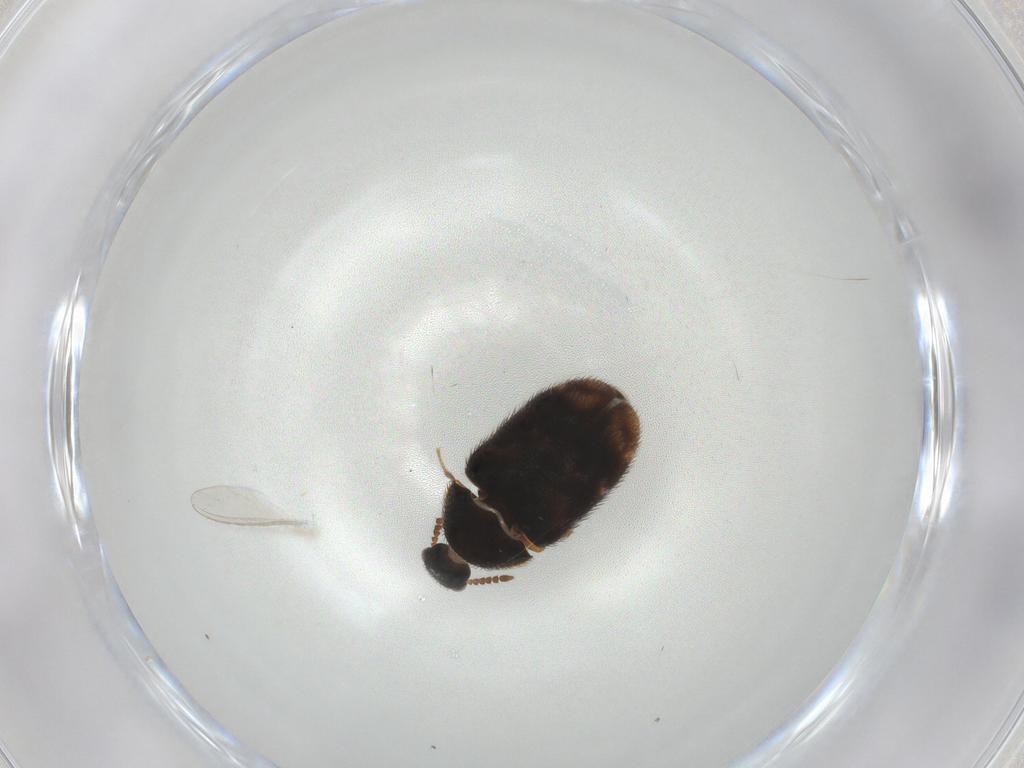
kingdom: Animalia
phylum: Arthropoda
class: Insecta
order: Coleoptera
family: Dermestidae
